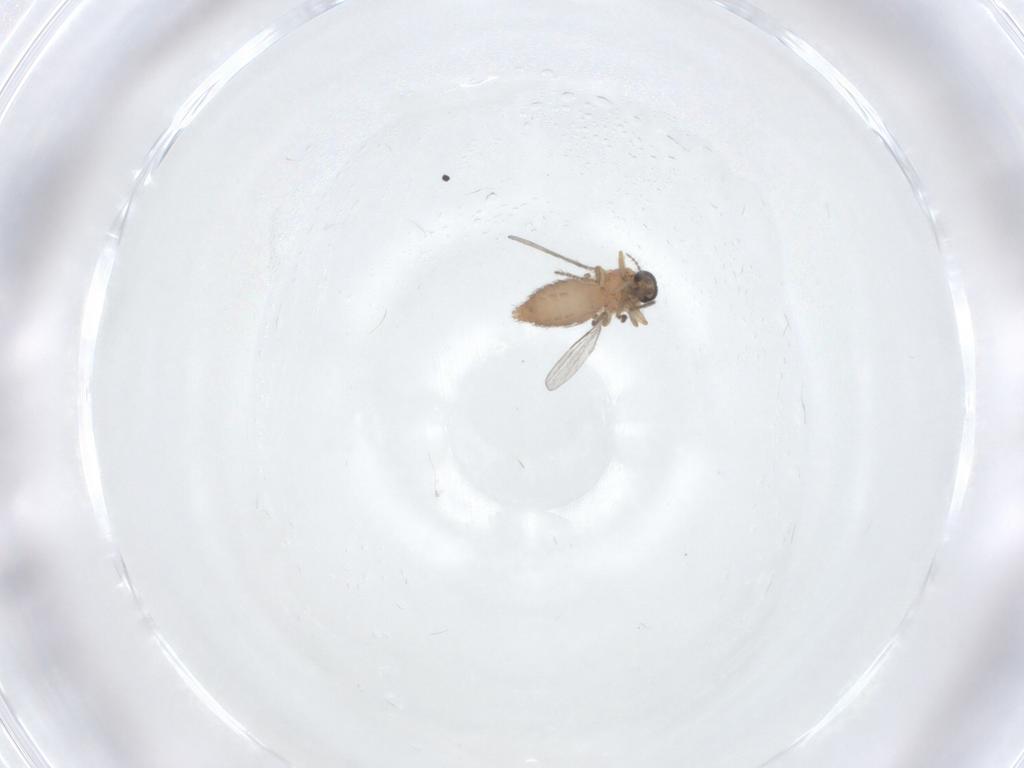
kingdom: Animalia
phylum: Arthropoda
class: Insecta
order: Diptera
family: Ceratopogonidae
